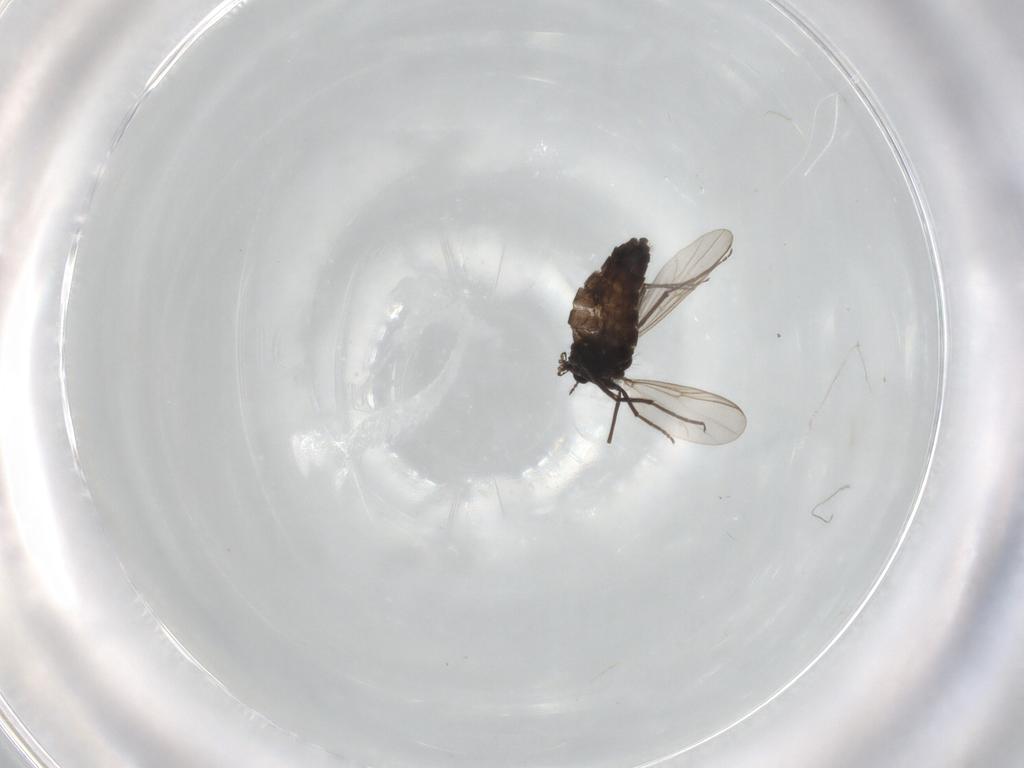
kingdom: Animalia
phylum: Arthropoda
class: Insecta
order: Diptera
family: Chironomidae
